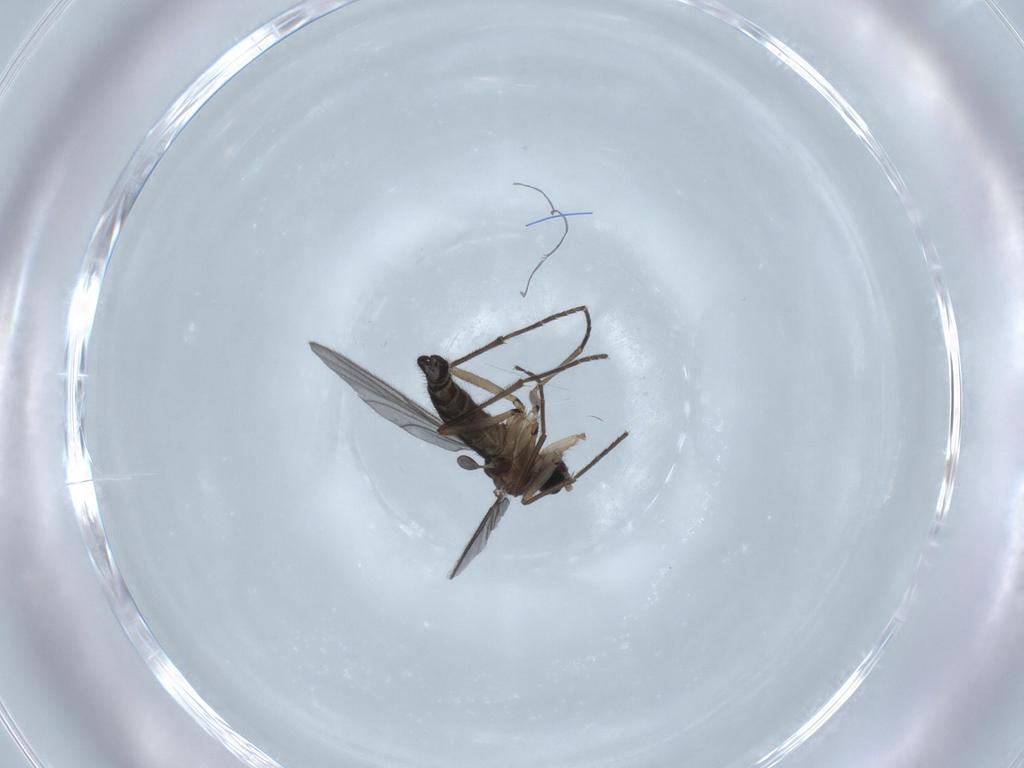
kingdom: Animalia
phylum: Arthropoda
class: Insecta
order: Diptera
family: Sciaridae
